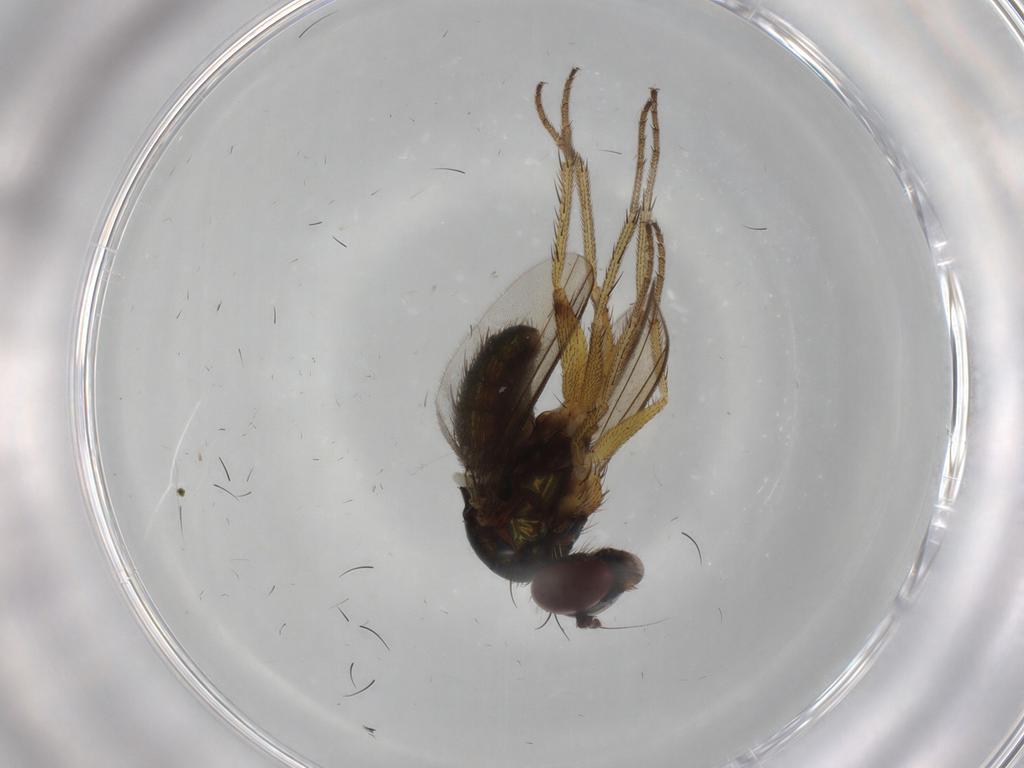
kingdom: Animalia
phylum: Arthropoda
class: Insecta
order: Diptera
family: Dolichopodidae
